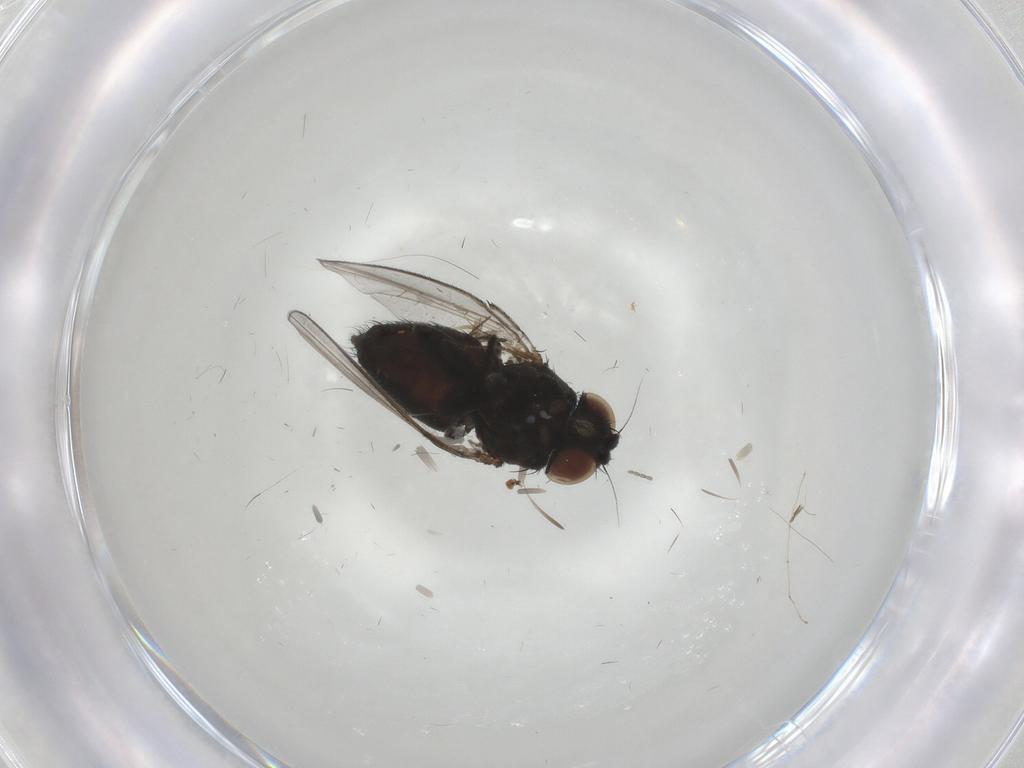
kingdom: Animalia
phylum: Arthropoda
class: Insecta
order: Diptera
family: Milichiidae
